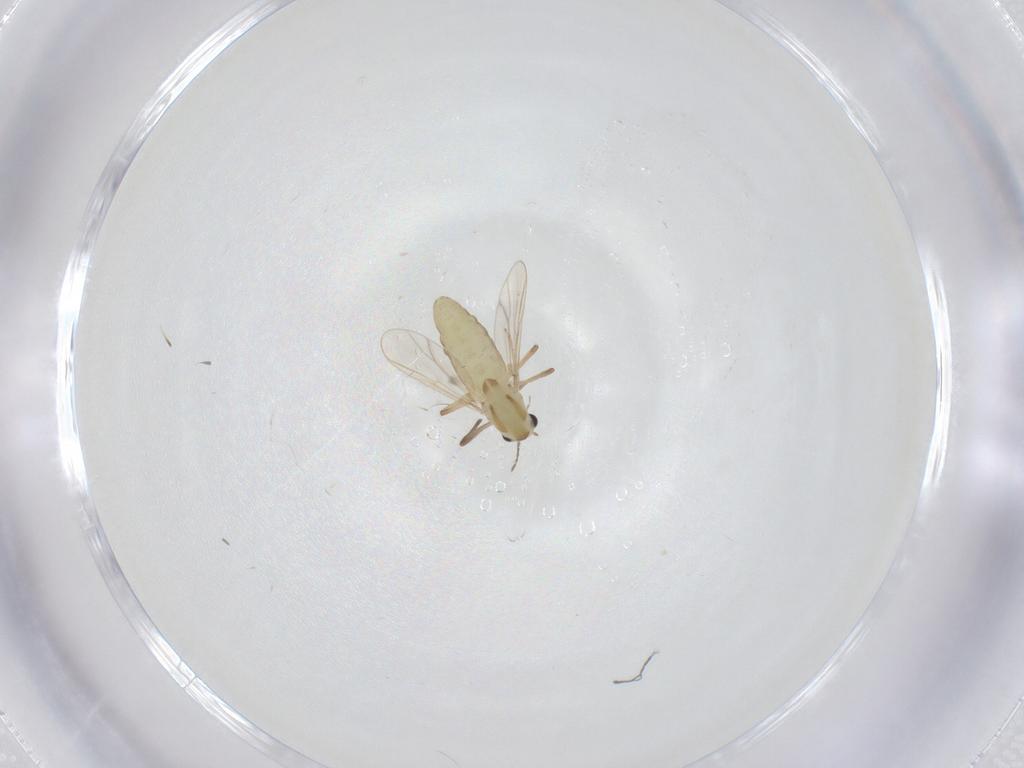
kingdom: Animalia
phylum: Arthropoda
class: Insecta
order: Diptera
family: Chironomidae
